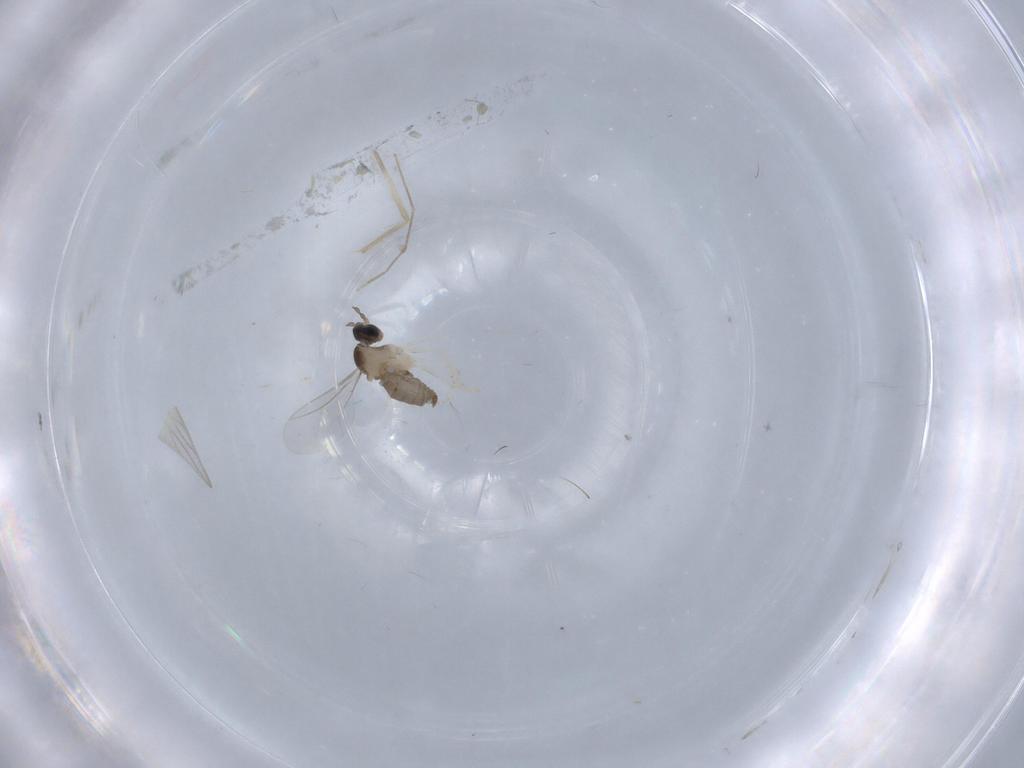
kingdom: Animalia
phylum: Arthropoda
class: Insecta
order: Diptera
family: Cecidomyiidae
